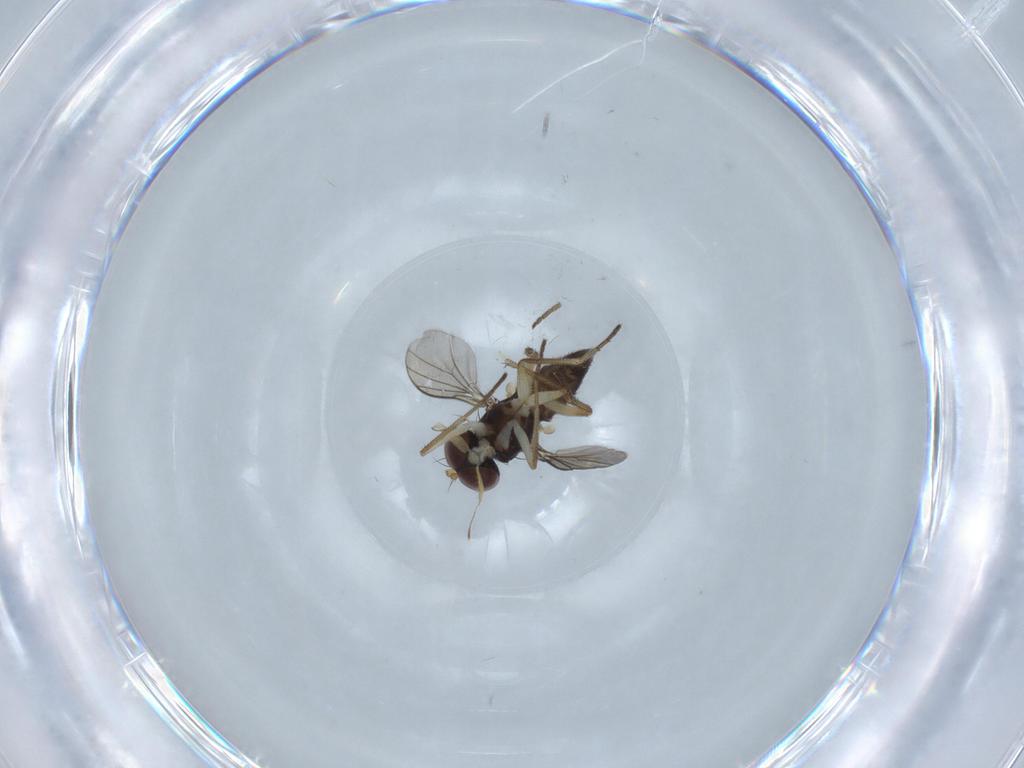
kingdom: Animalia
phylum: Arthropoda
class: Insecta
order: Diptera
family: Dolichopodidae
